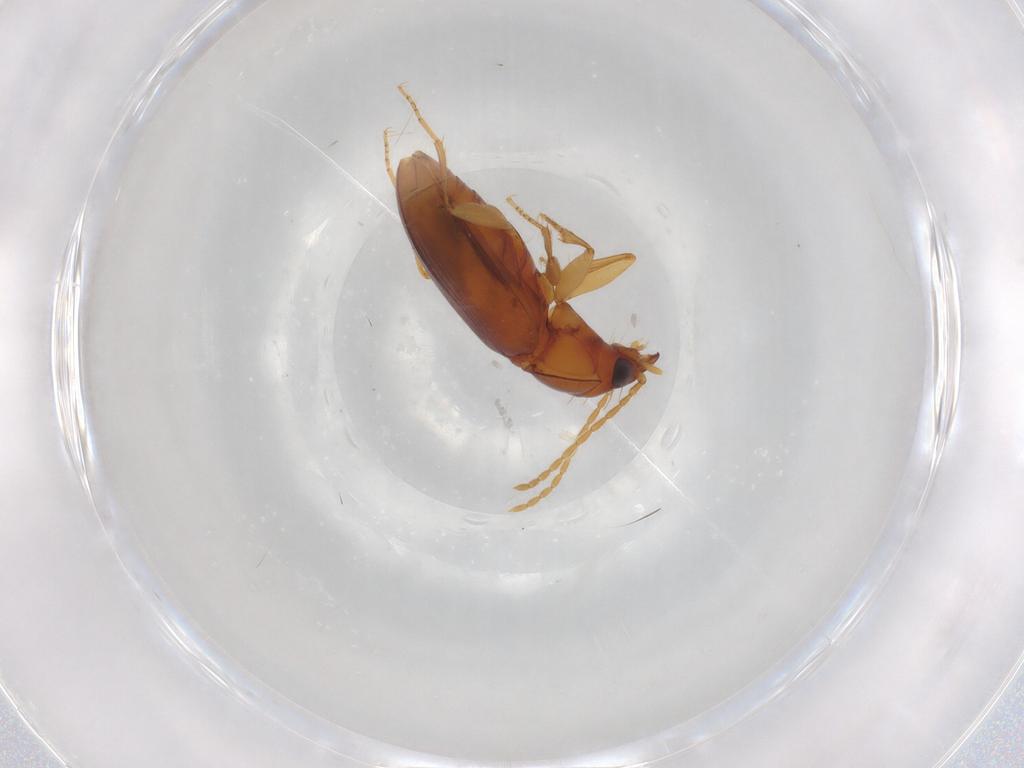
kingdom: Animalia
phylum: Arthropoda
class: Insecta
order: Coleoptera
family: Carabidae
